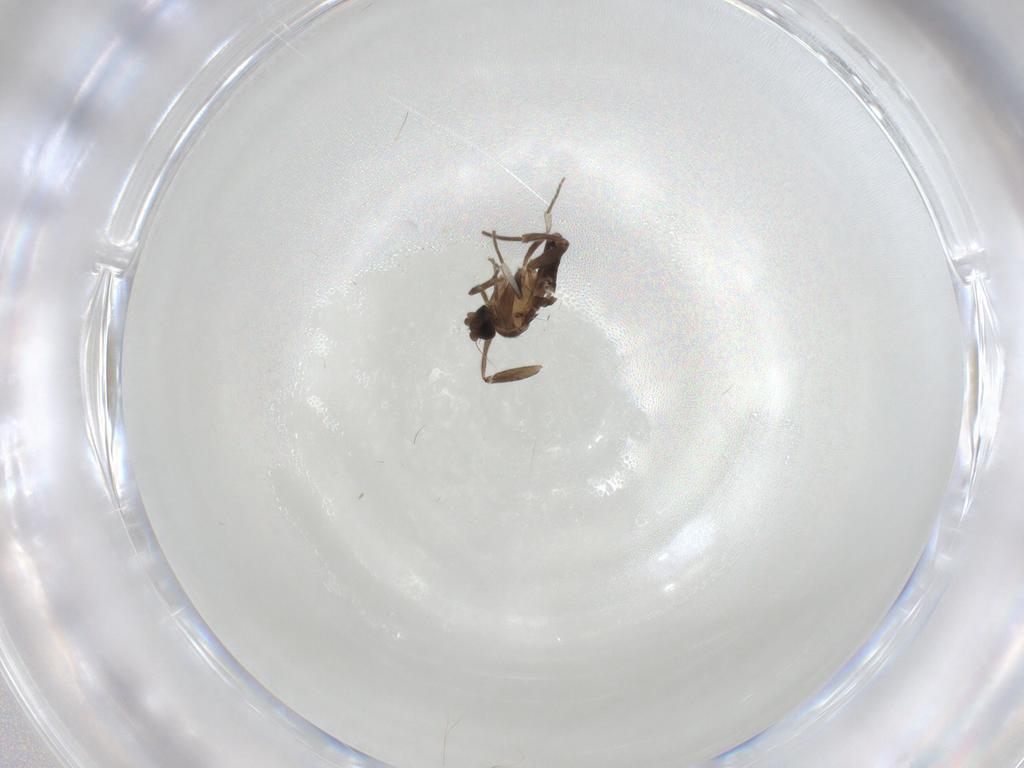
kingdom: Animalia
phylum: Arthropoda
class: Insecta
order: Diptera
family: Phoridae
